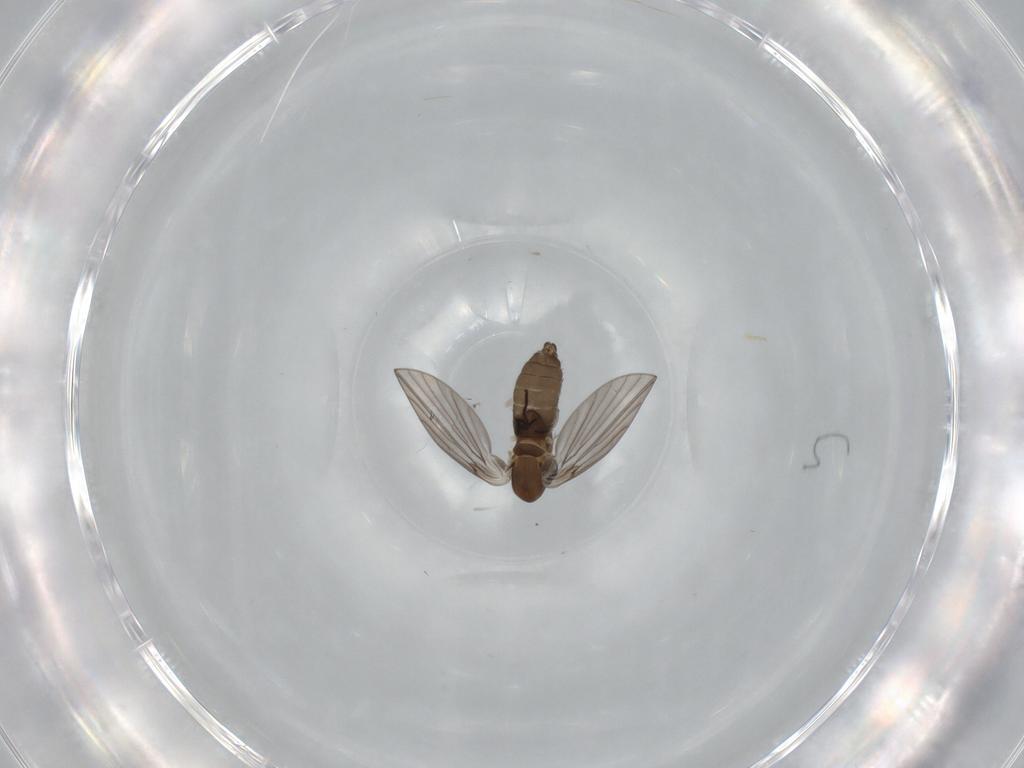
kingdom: Animalia
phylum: Arthropoda
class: Insecta
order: Diptera
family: Psychodidae
